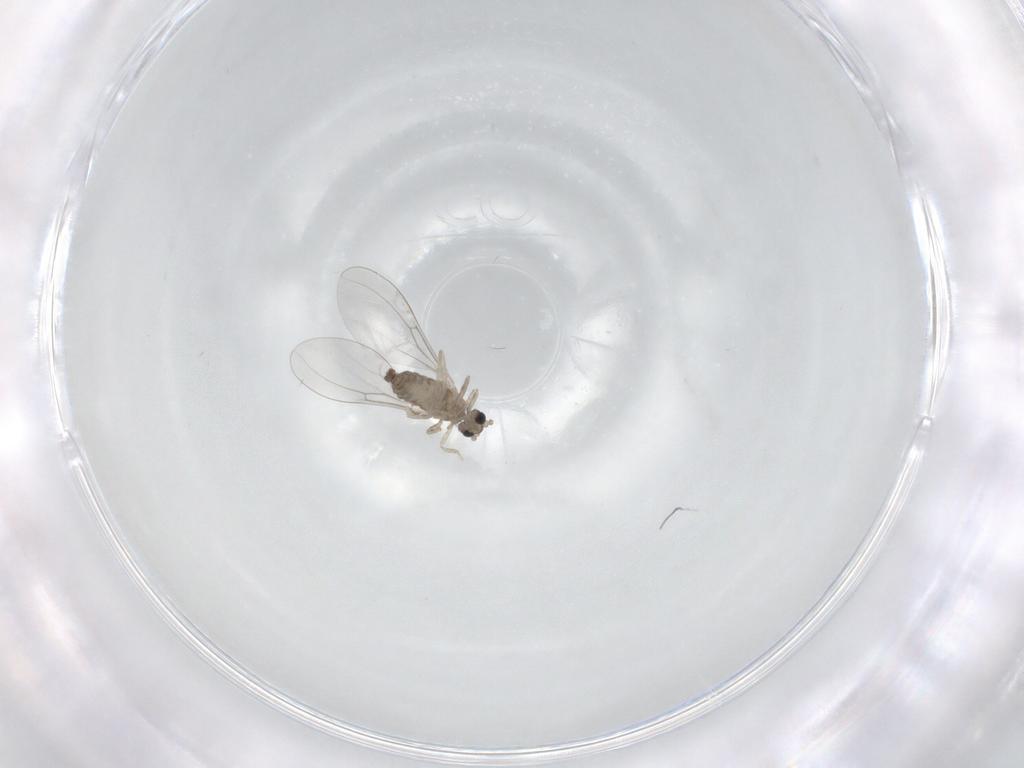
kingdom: Animalia
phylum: Arthropoda
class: Insecta
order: Diptera
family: Cecidomyiidae
